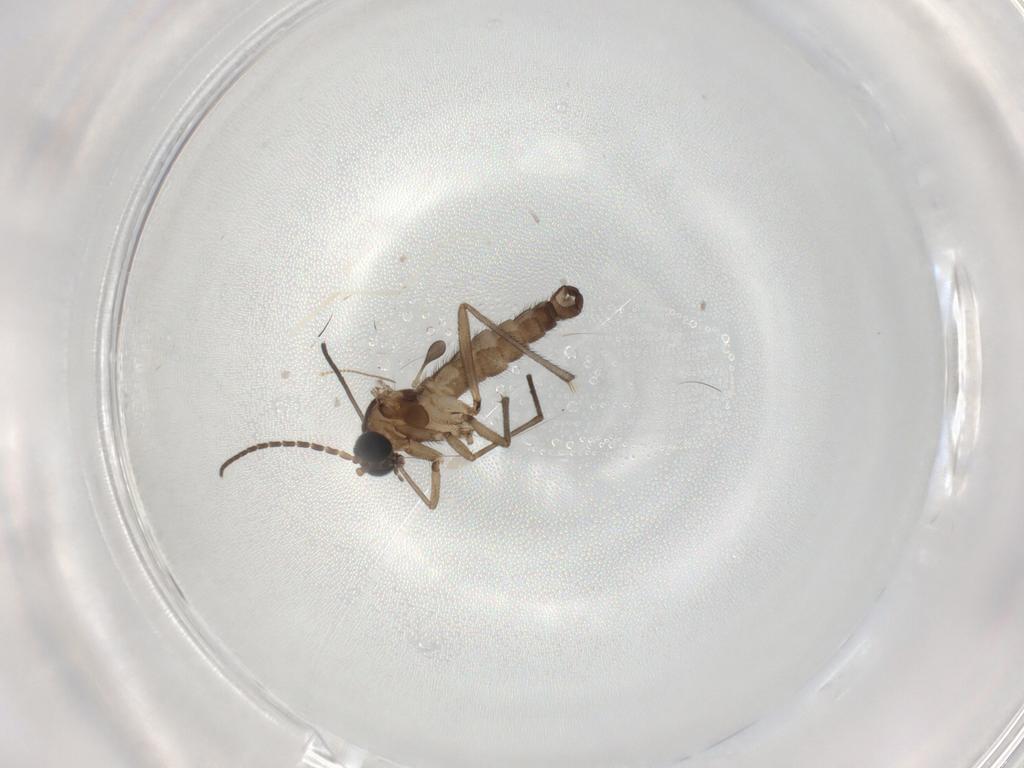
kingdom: Animalia
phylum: Arthropoda
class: Insecta
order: Diptera
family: Sciaridae
